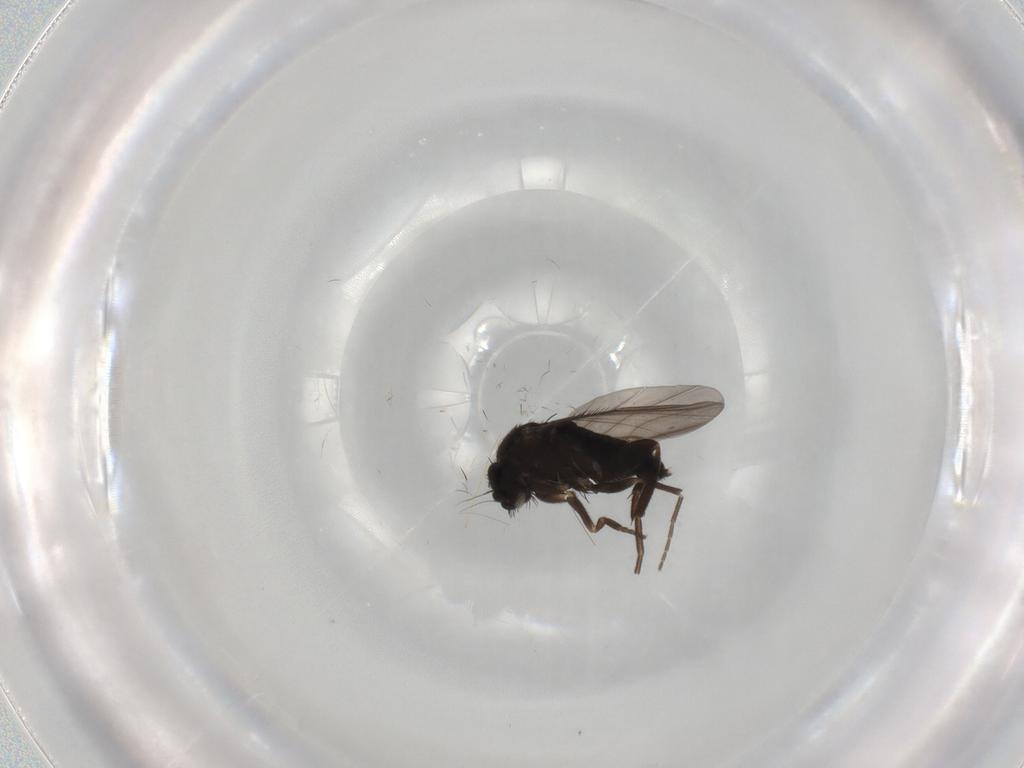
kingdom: Animalia
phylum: Arthropoda
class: Insecta
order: Diptera
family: Phoridae
